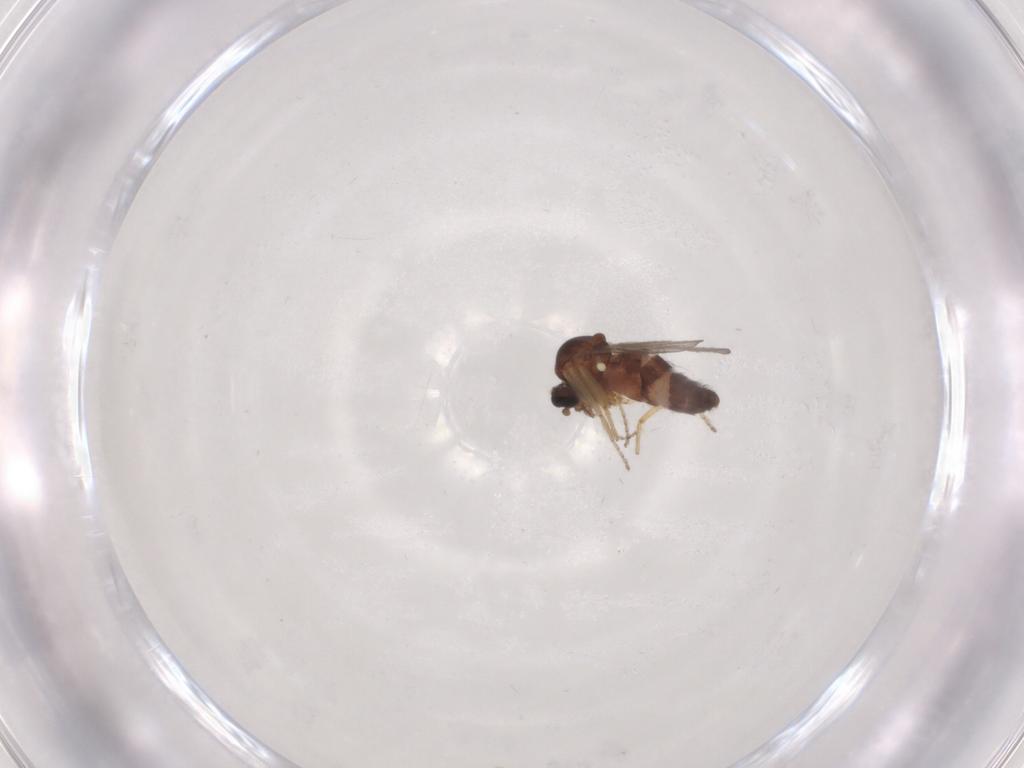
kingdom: Animalia
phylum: Arthropoda
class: Insecta
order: Diptera
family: Ceratopogonidae
